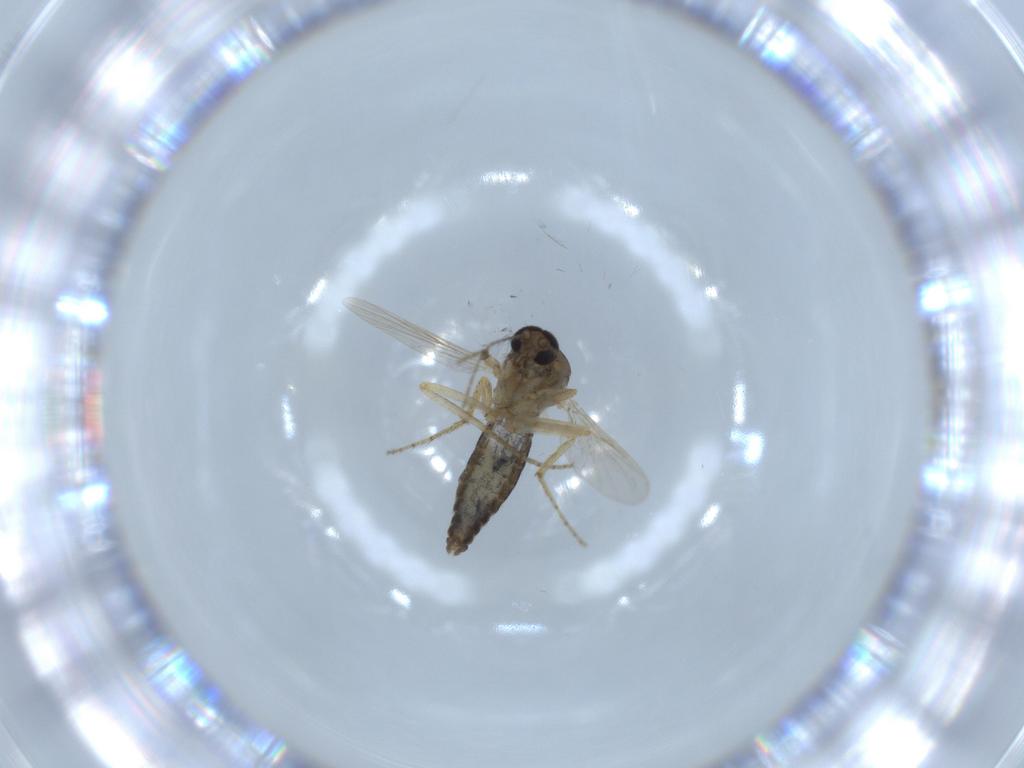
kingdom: Animalia
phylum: Arthropoda
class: Insecta
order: Diptera
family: Ceratopogonidae
